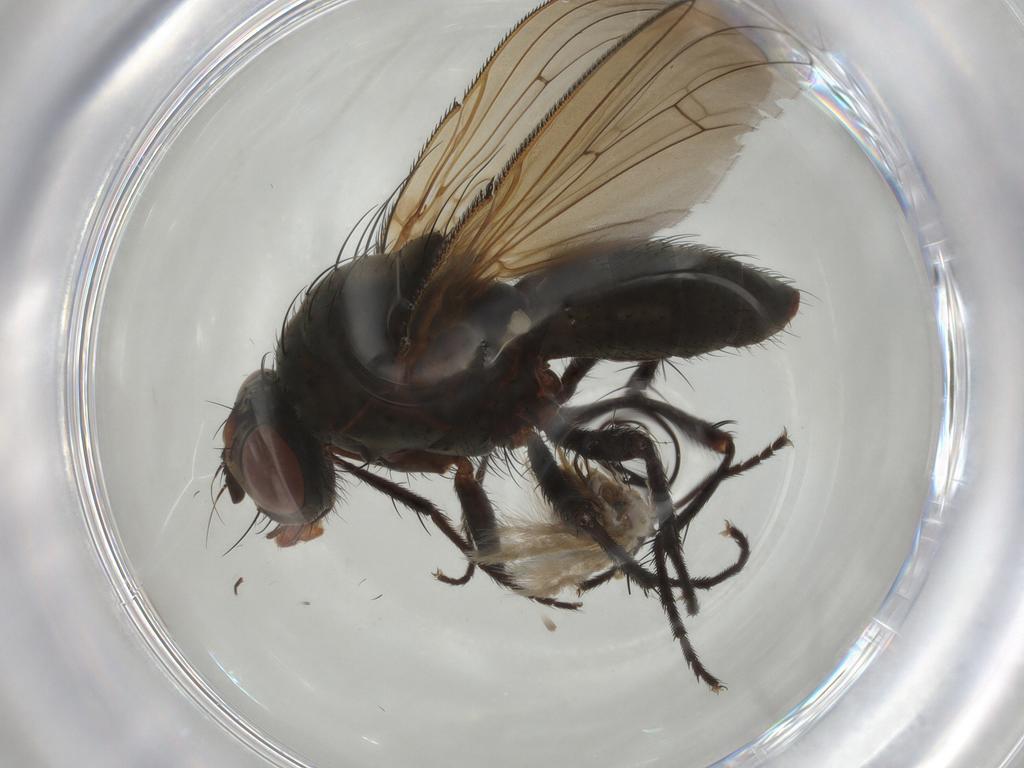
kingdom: Animalia
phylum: Arthropoda
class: Insecta
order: Diptera
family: Anthomyiidae
